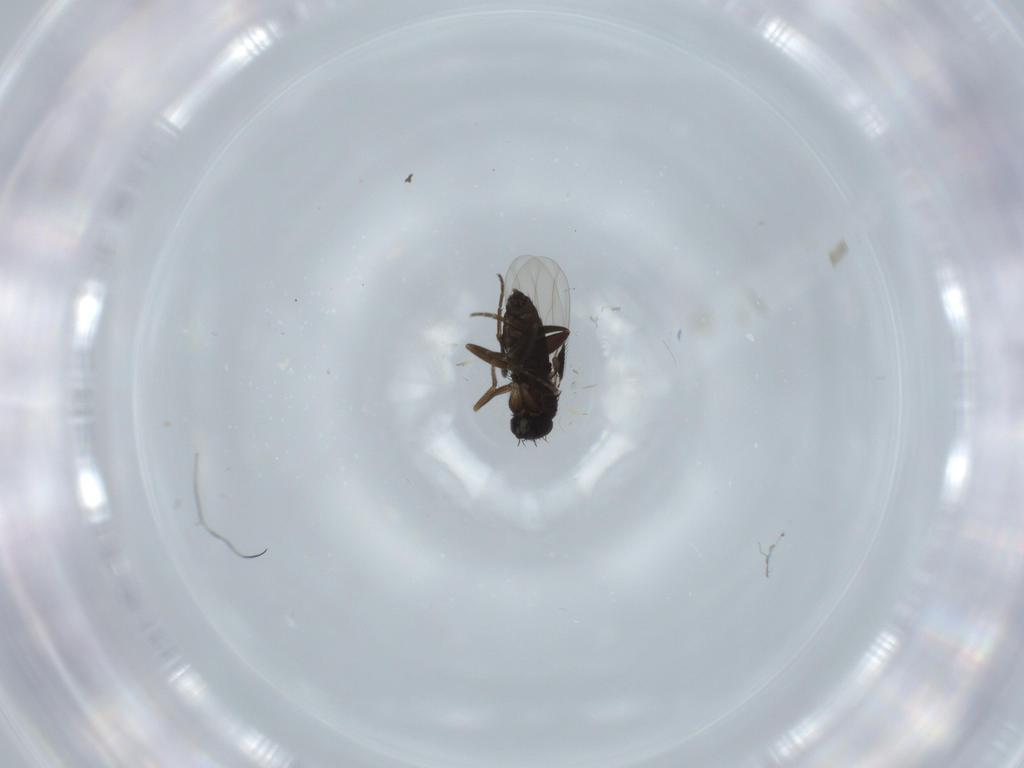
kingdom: Animalia
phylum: Arthropoda
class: Insecta
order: Diptera
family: Phoridae
